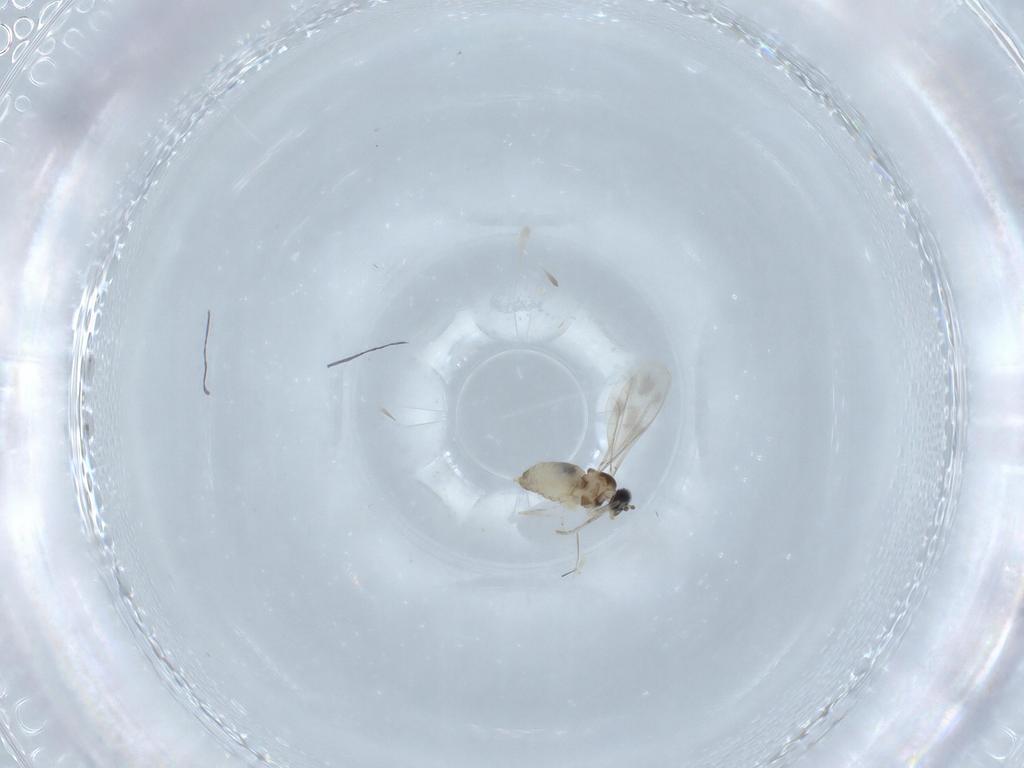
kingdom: Animalia
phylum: Arthropoda
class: Insecta
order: Diptera
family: Cecidomyiidae
